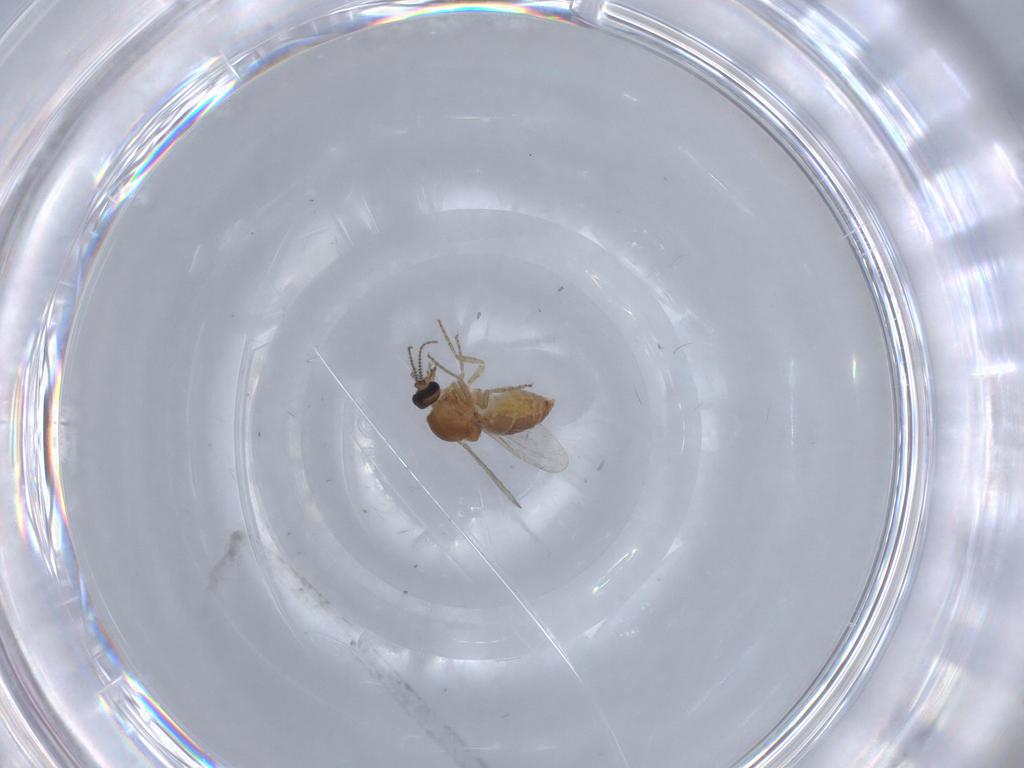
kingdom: Animalia
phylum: Arthropoda
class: Insecta
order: Diptera
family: Ceratopogonidae
